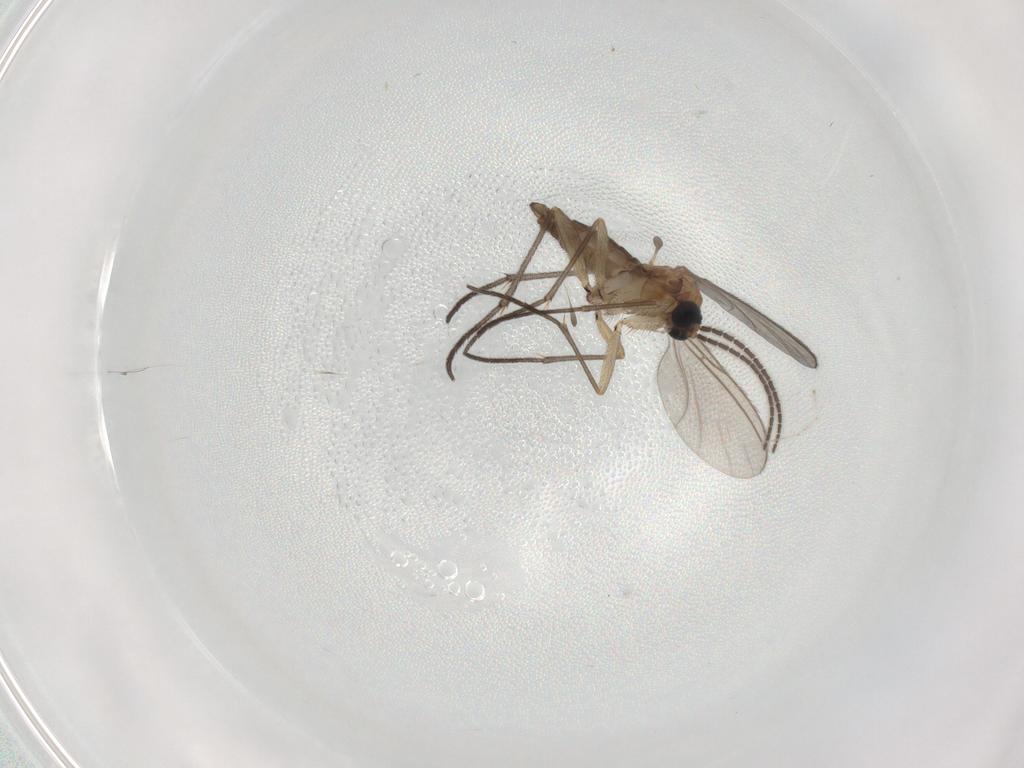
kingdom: Animalia
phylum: Arthropoda
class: Insecta
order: Diptera
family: Sciaridae
